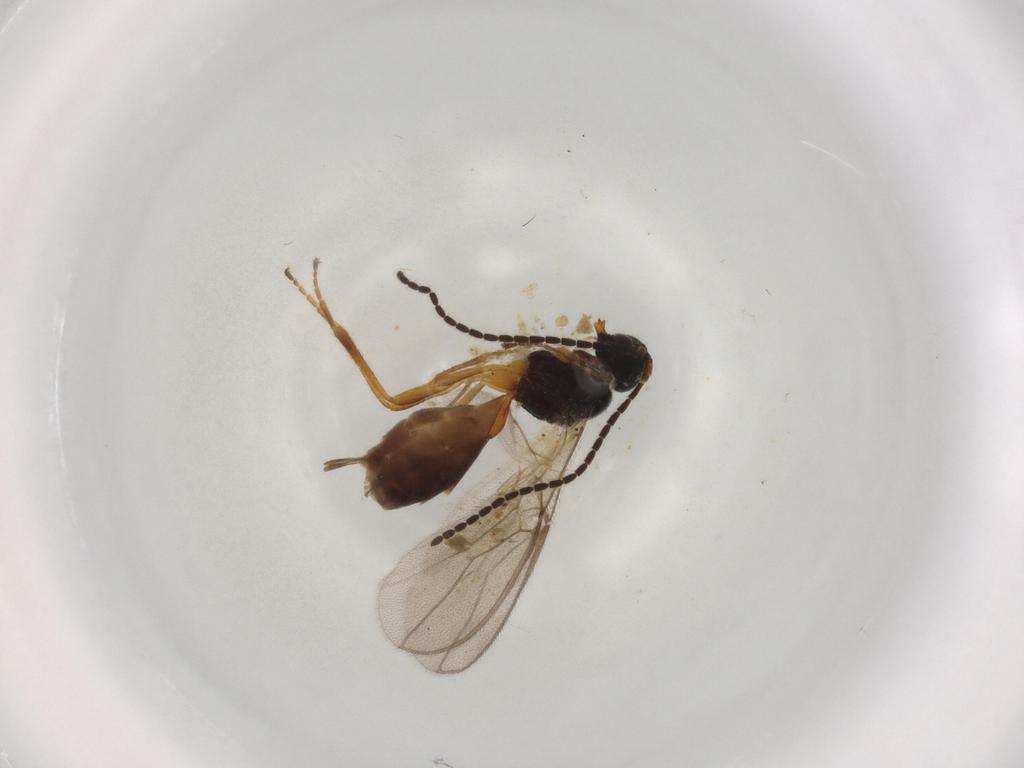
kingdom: Animalia
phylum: Arthropoda
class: Insecta
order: Hymenoptera
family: Braconidae
